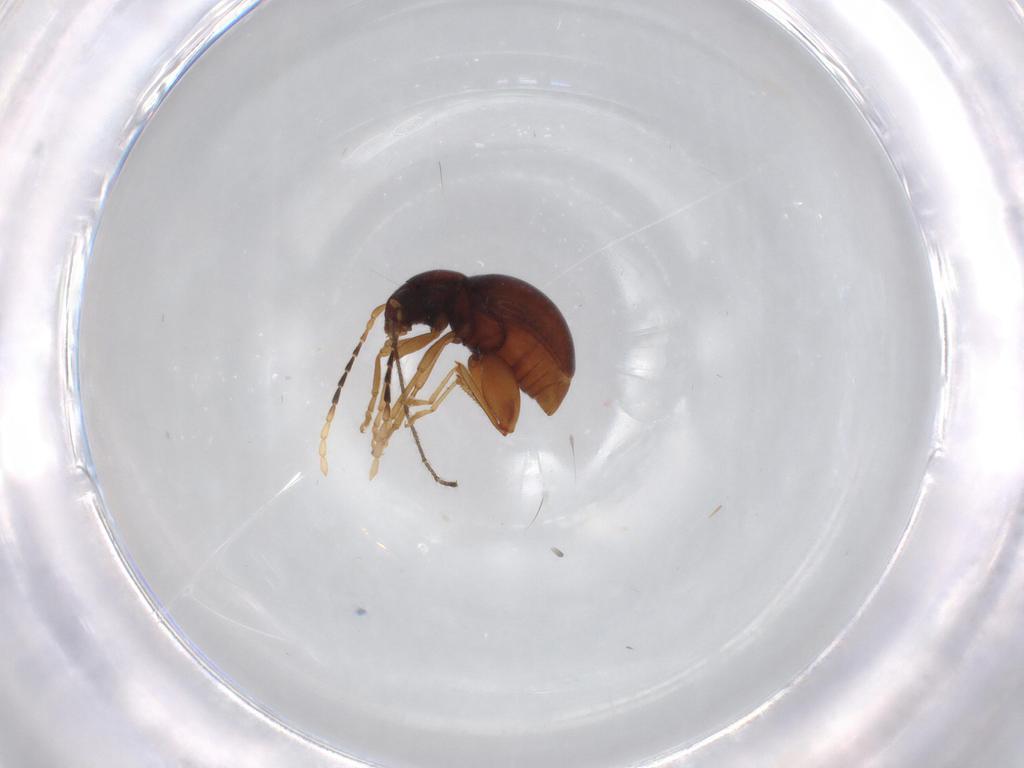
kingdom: Animalia
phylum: Arthropoda
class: Insecta
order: Coleoptera
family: Chrysomelidae
